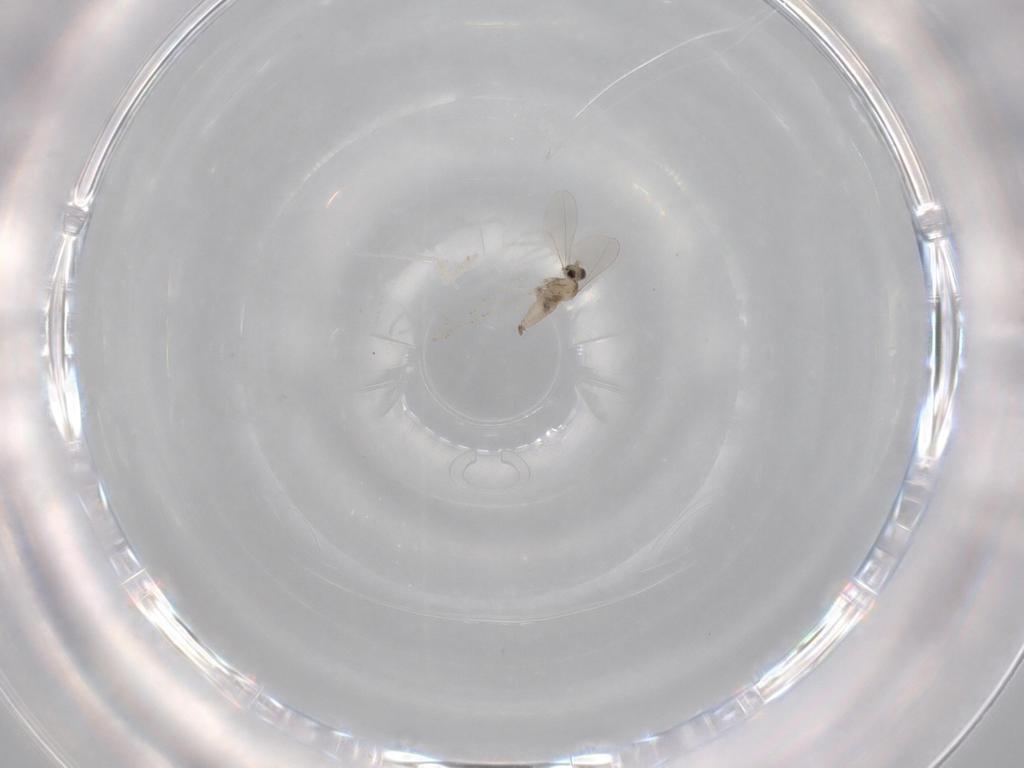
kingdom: Animalia
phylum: Arthropoda
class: Insecta
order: Diptera
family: Cecidomyiidae
